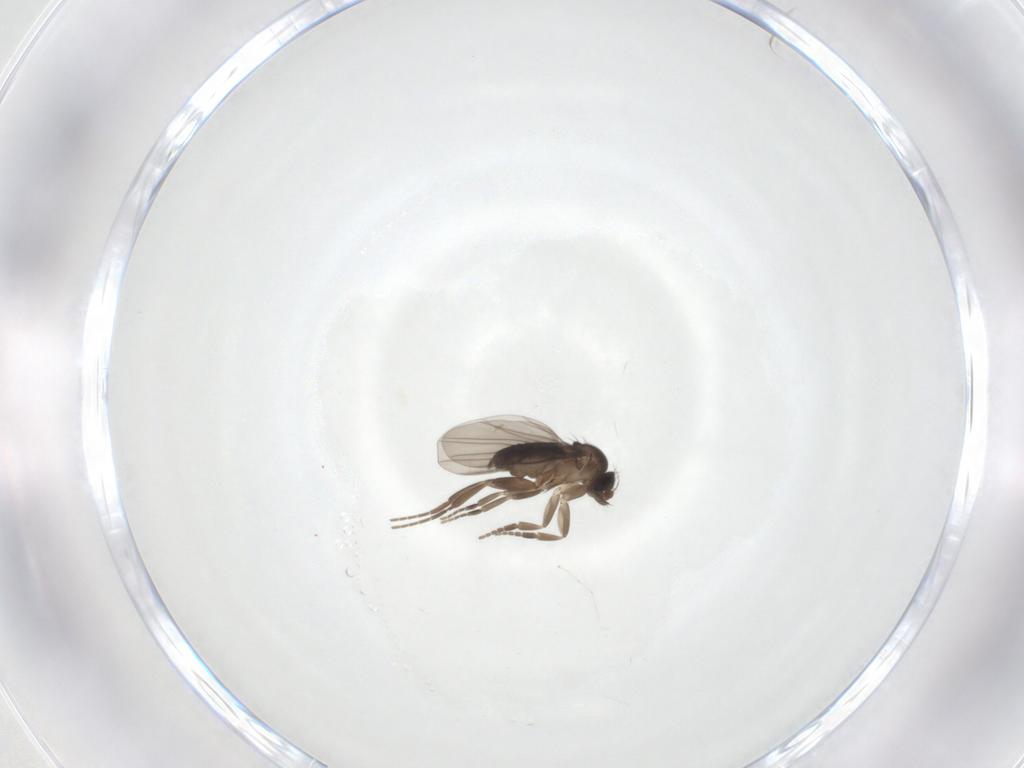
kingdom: Animalia
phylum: Arthropoda
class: Insecta
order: Diptera
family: Phoridae
